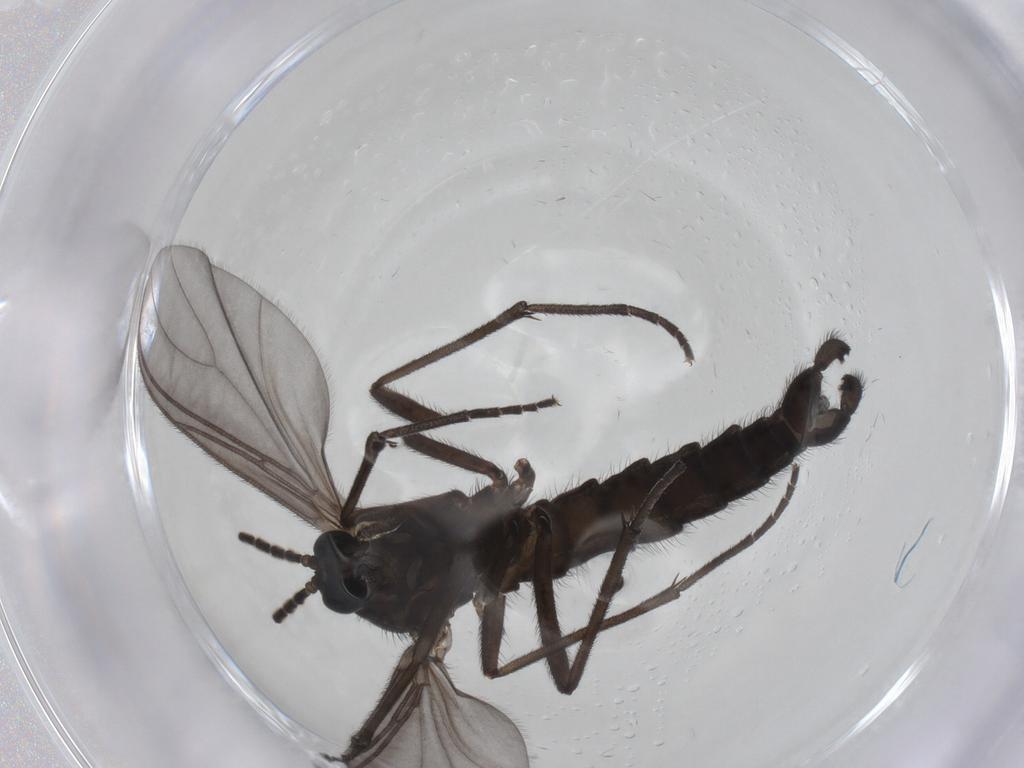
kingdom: Animalia
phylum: Arthropoda
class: Insecta
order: Diptera
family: Sciaridae
